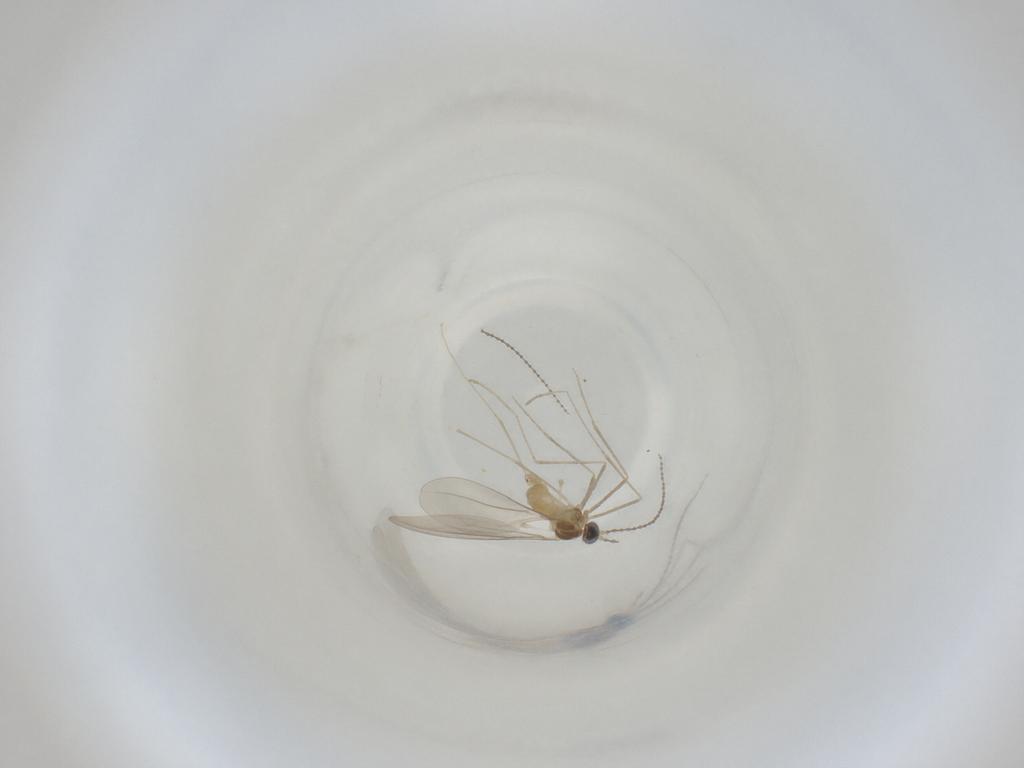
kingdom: Animalia
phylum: Arthropoda
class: Insecta
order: Diptera
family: Cecidomyiidae
